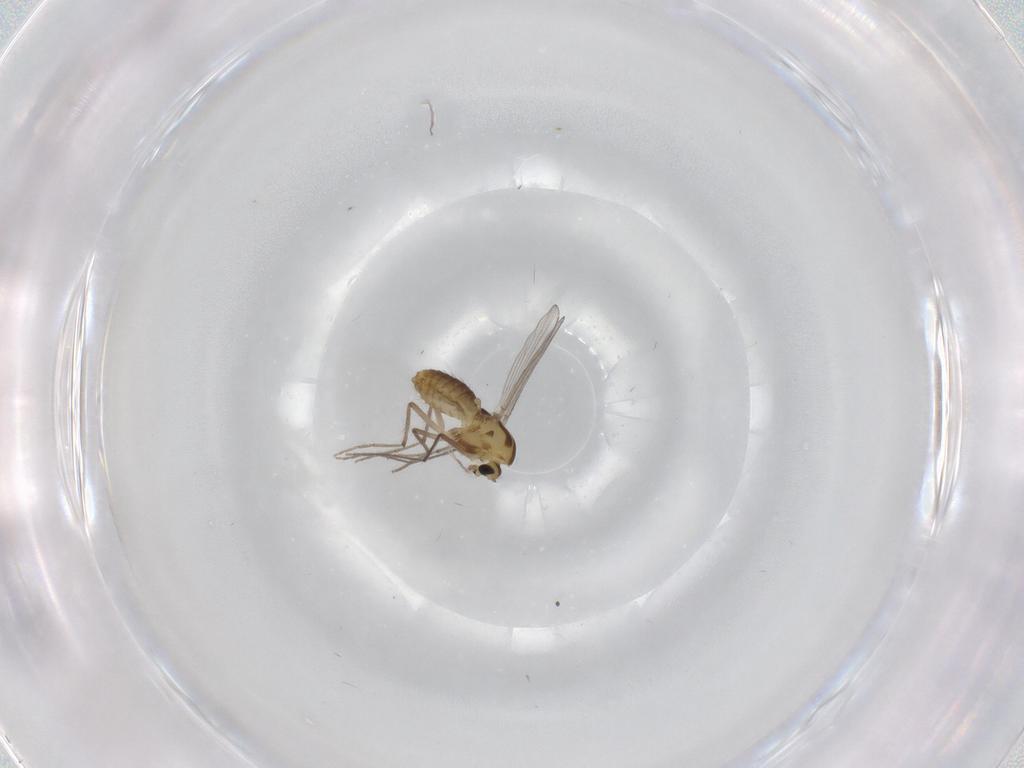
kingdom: Animalia
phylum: Arthropoda
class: Insecta
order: Diptera
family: Ceratopogonidae
